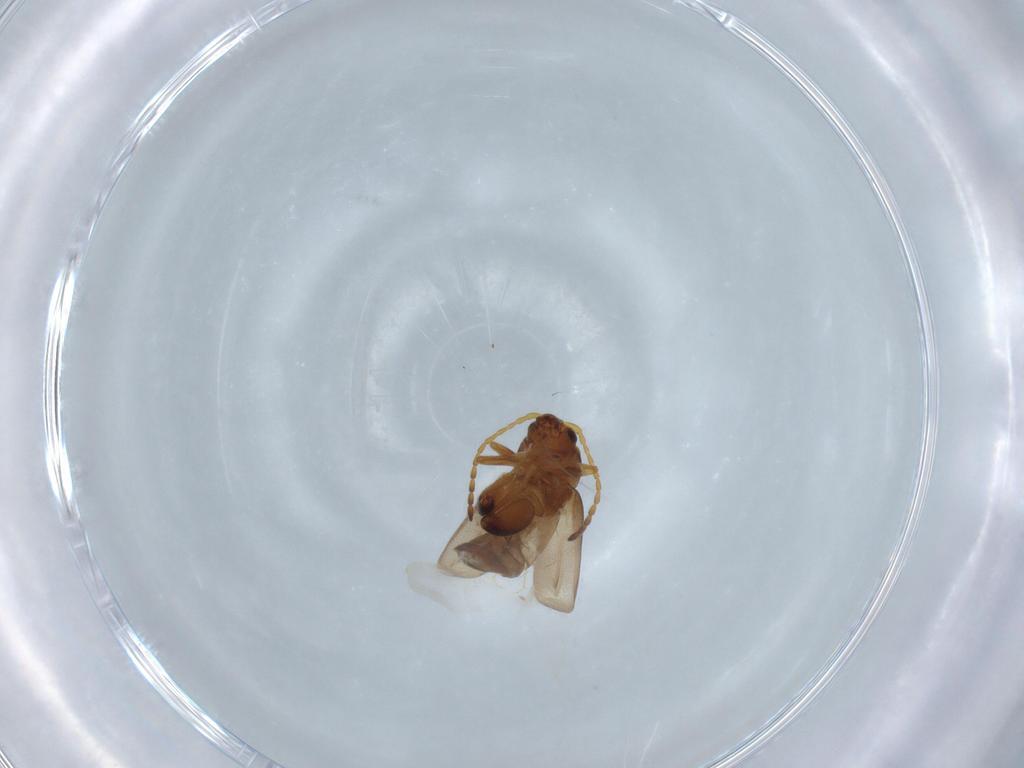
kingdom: Animalia
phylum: Arthropoda
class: Insecta
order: Coleoptera
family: Chrysomelidae
